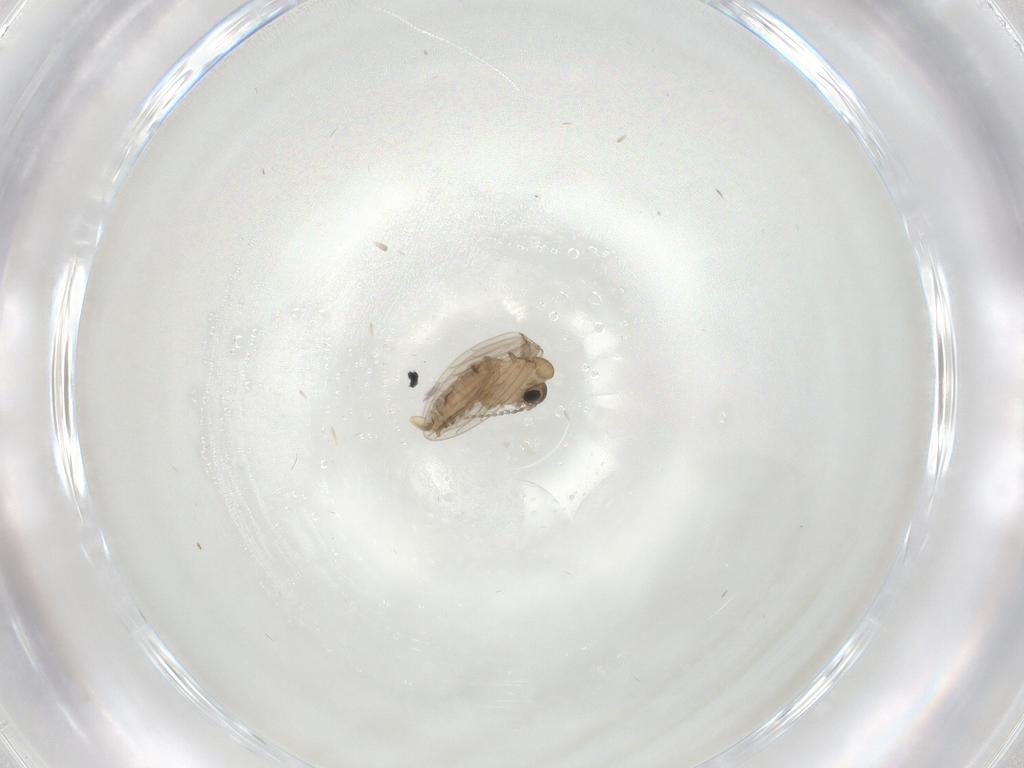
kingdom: Animalia
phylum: Arthropoda
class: Insecta
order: Diptera
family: Psychodidae
